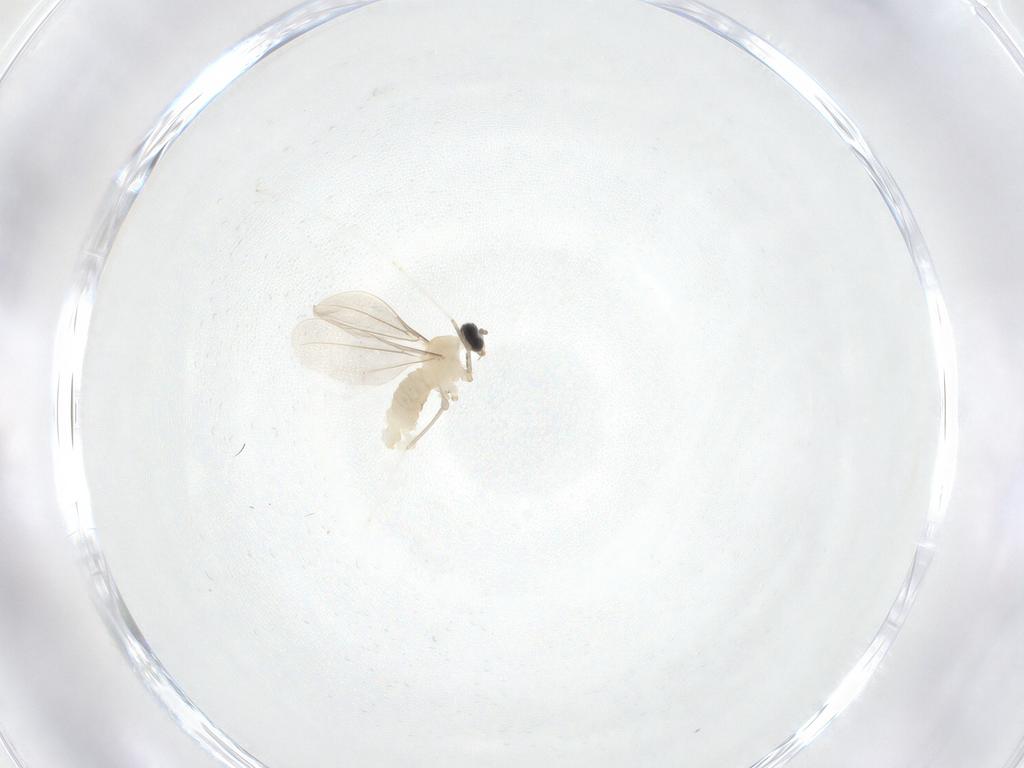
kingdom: Animalia
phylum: Arthropoda
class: Insecta
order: Diptera
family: Cecidomyiidae
